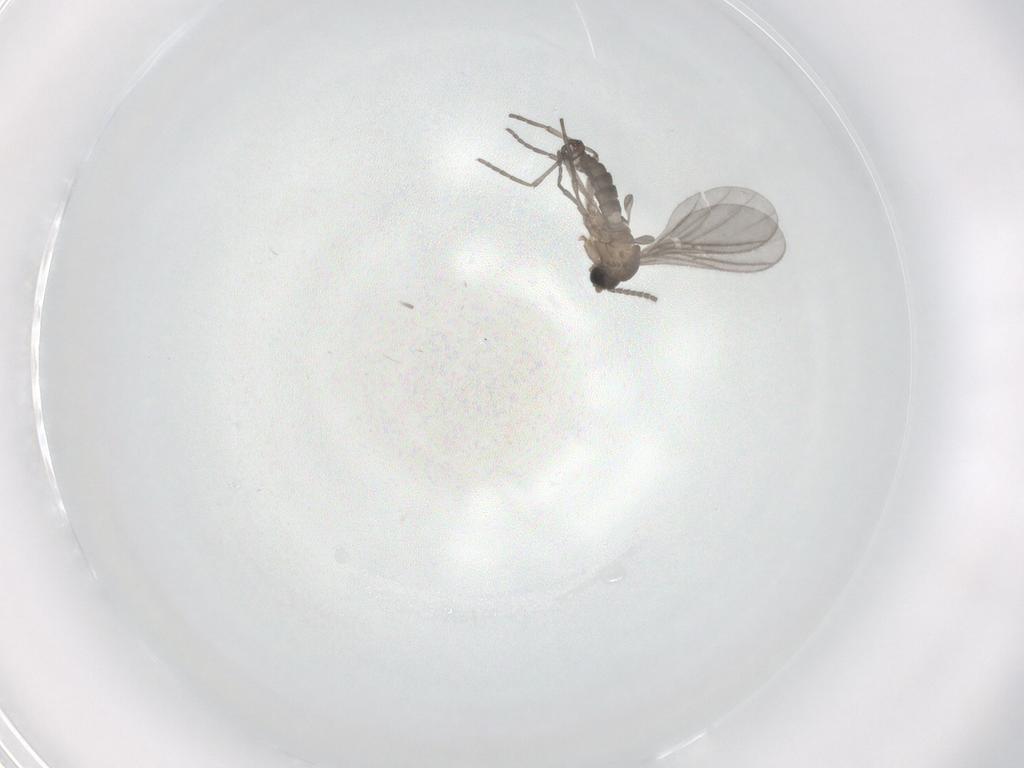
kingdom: Animalia
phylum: Arthropoda
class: Insecta
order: Diptera
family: Sciaridae
